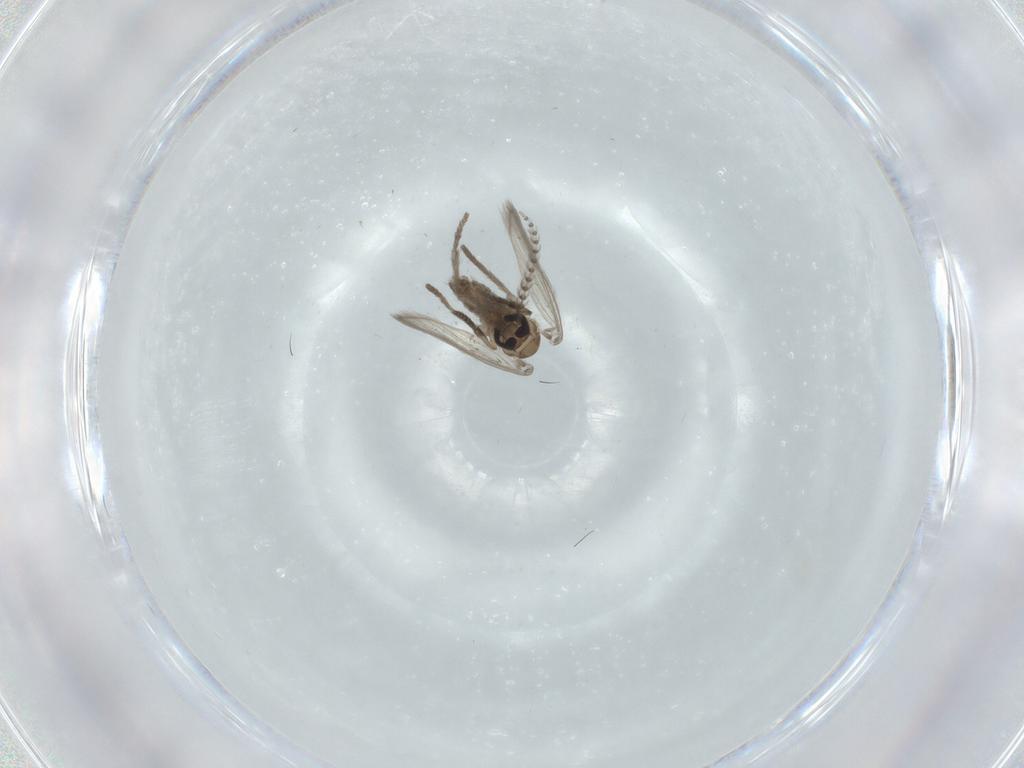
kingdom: Animalia
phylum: Arthropoda
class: Insecta
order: Diptera
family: Psychodidae
